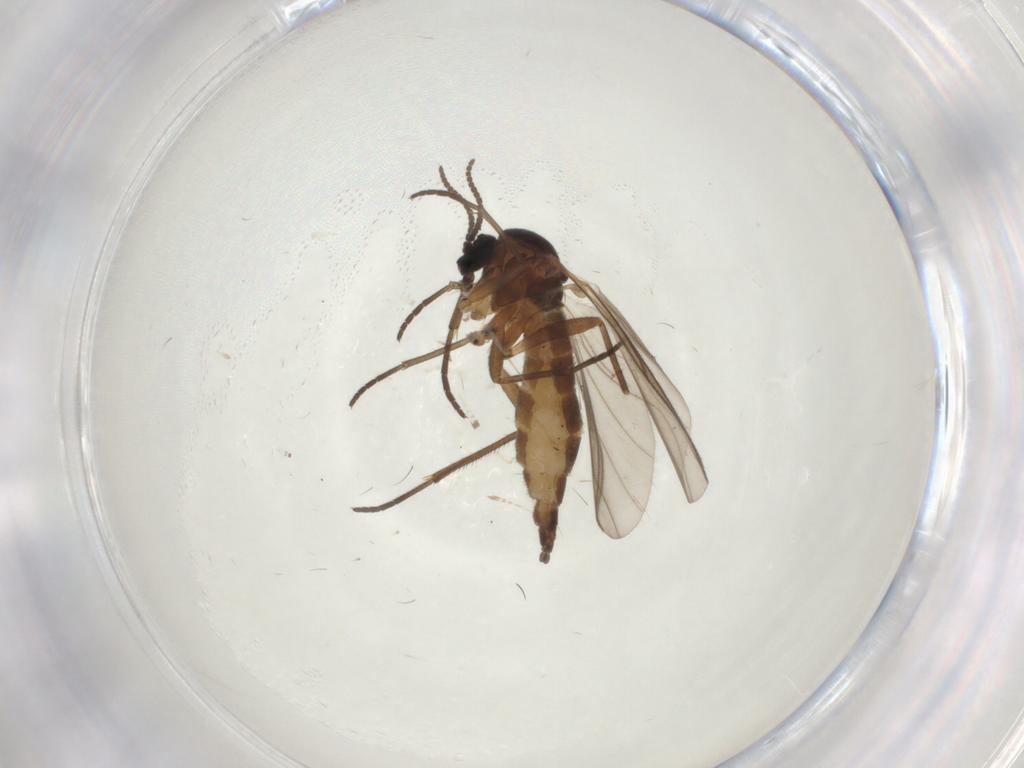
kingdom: Animalia
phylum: Arthropoda
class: Insecta
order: Diptera
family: Sciaridae
